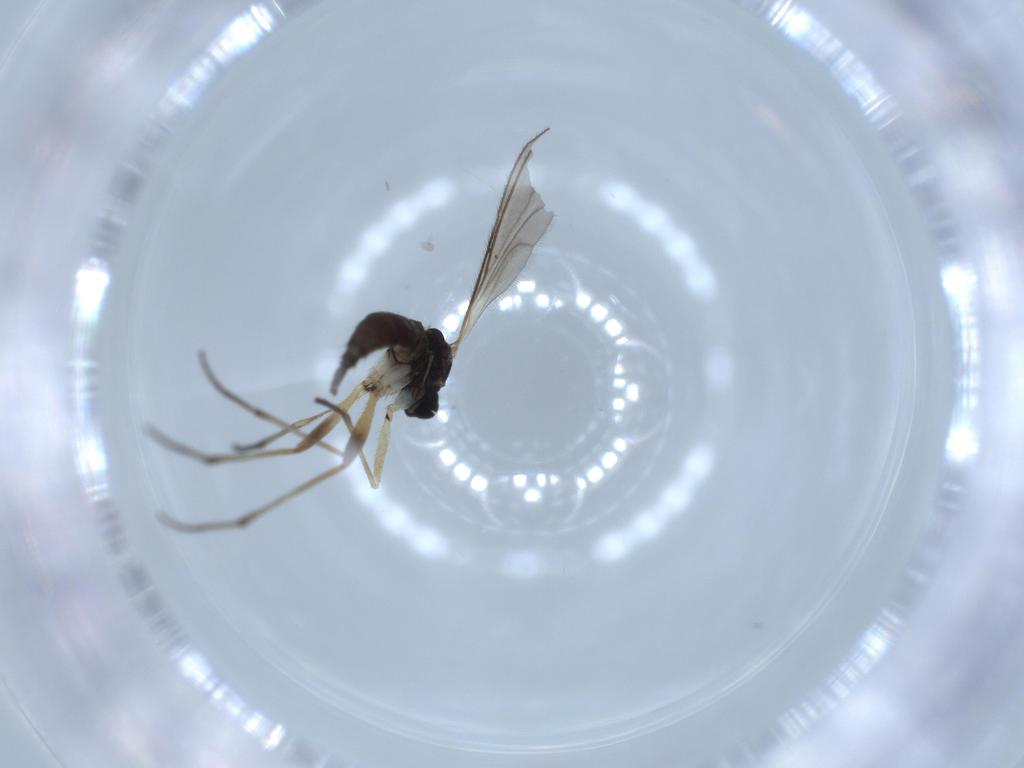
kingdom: Animalia
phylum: Arthropoda
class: Insecta
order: Diptera
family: Sciaridae
